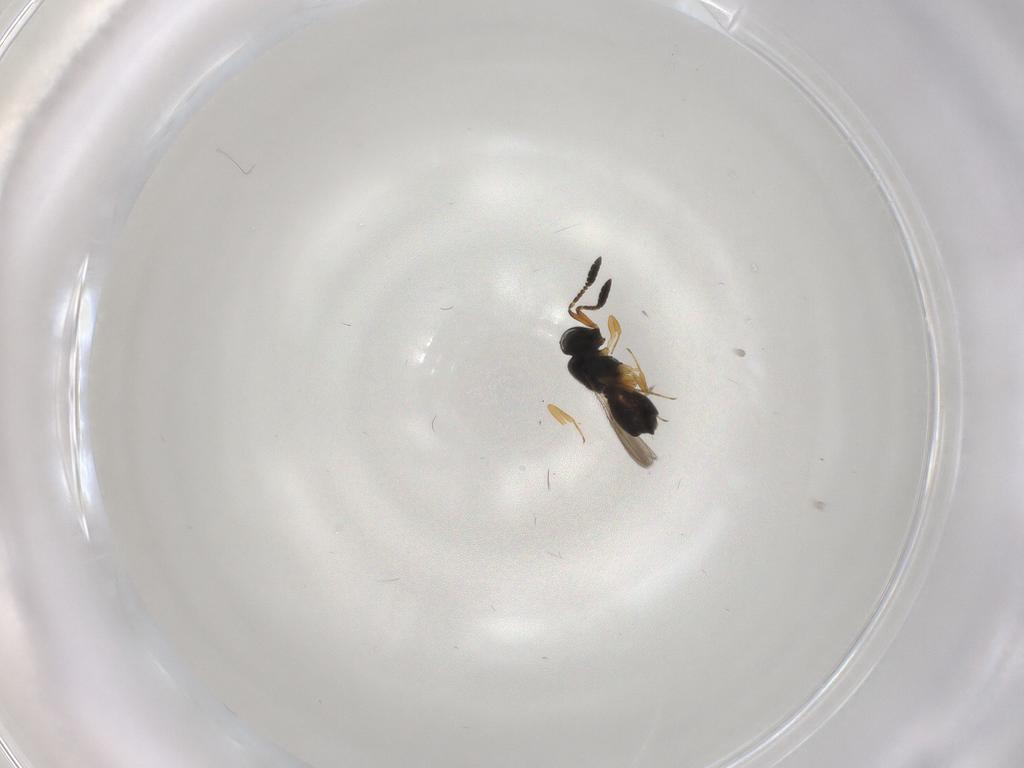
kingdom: Animalia
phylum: Arthropoda
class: Insecta
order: Hymenoptera
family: Scelionidae
